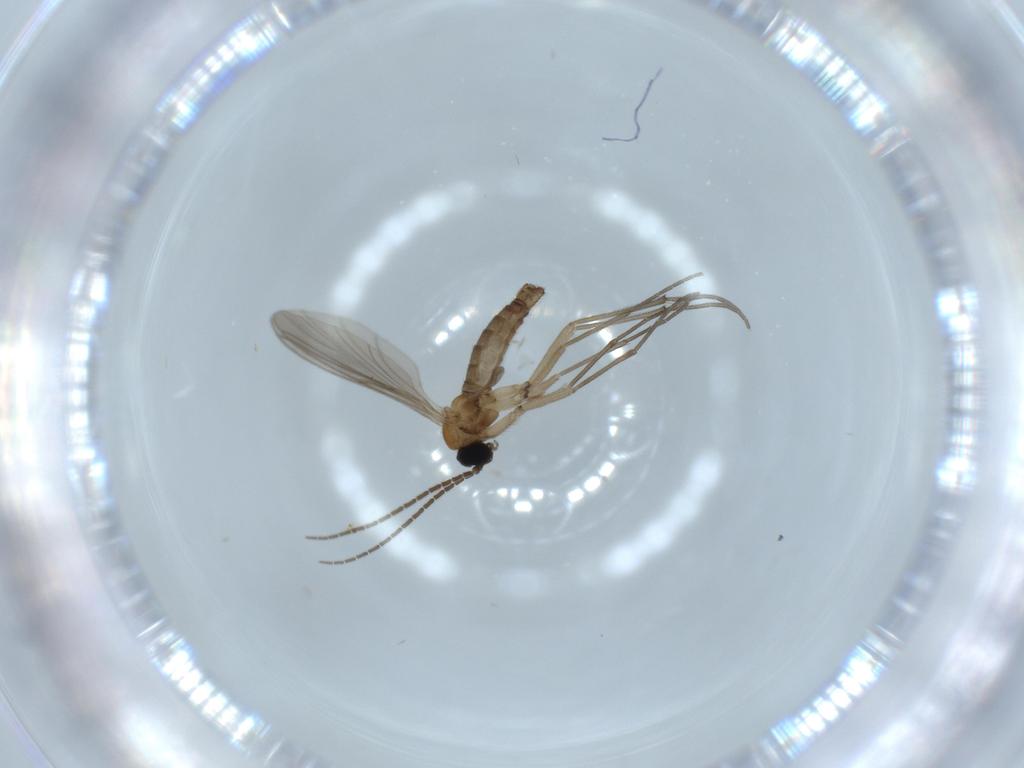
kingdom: Animalia
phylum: Arthropoda
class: Insecta
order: Diptera
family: Sciaridae
